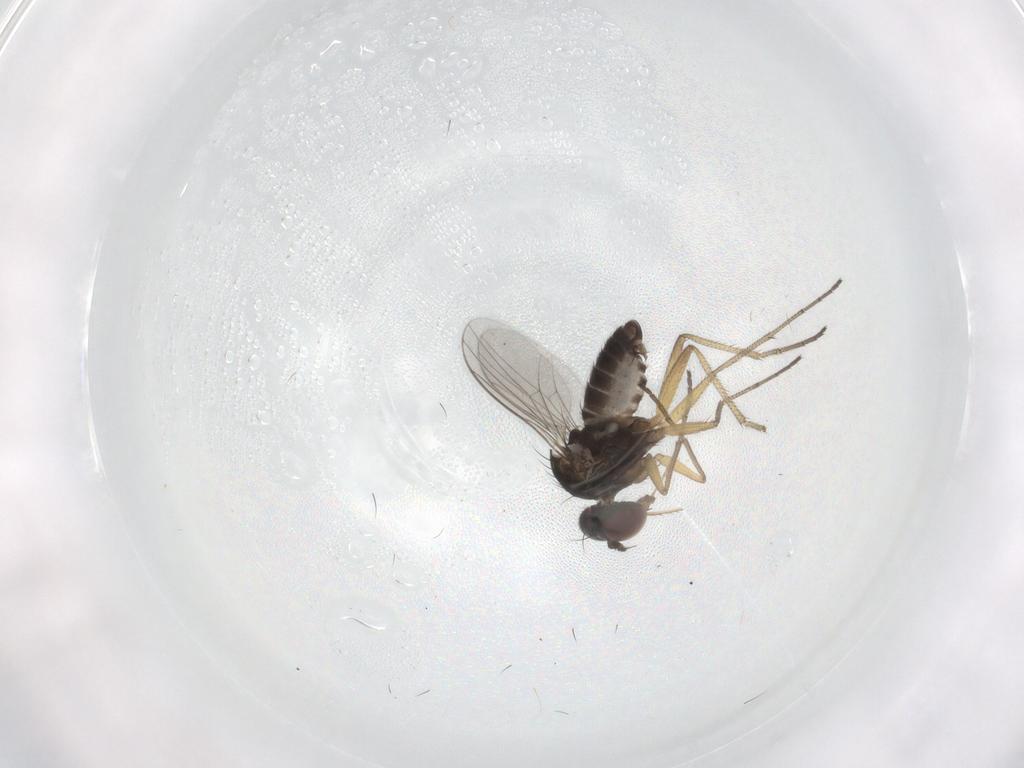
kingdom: Animalia
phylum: Arthropoda
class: Insecta
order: Diptera
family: Dolichopodidae
